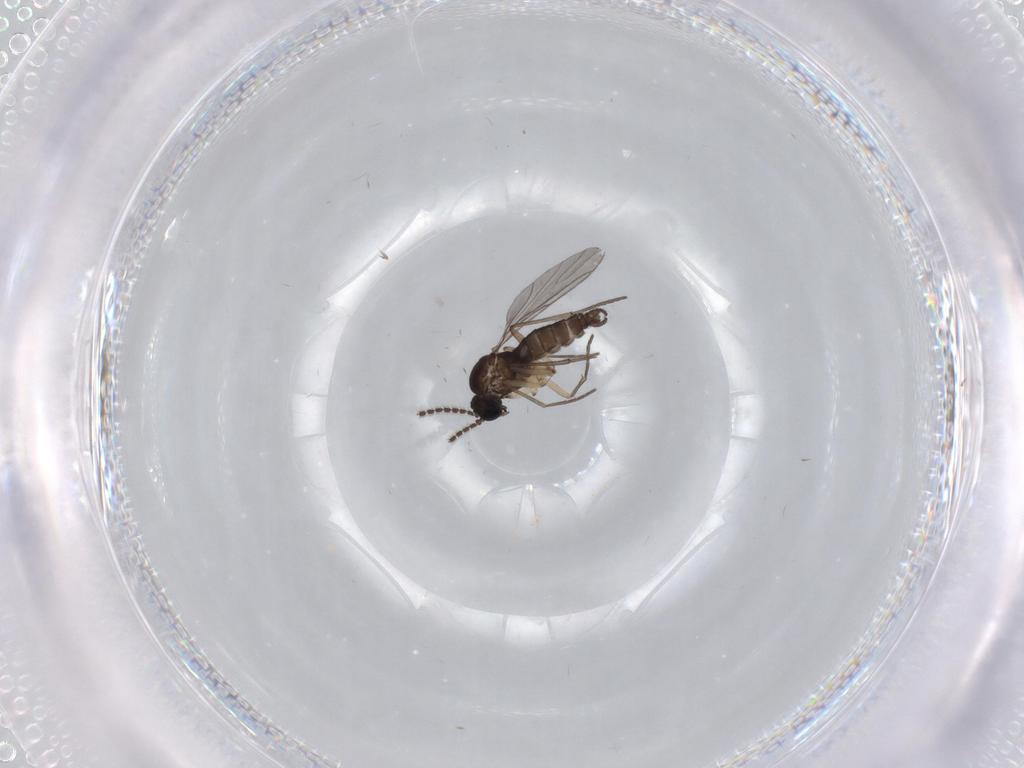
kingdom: Animalia
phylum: Arthropoda
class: Insecta
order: Diptera
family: Sciaridae
